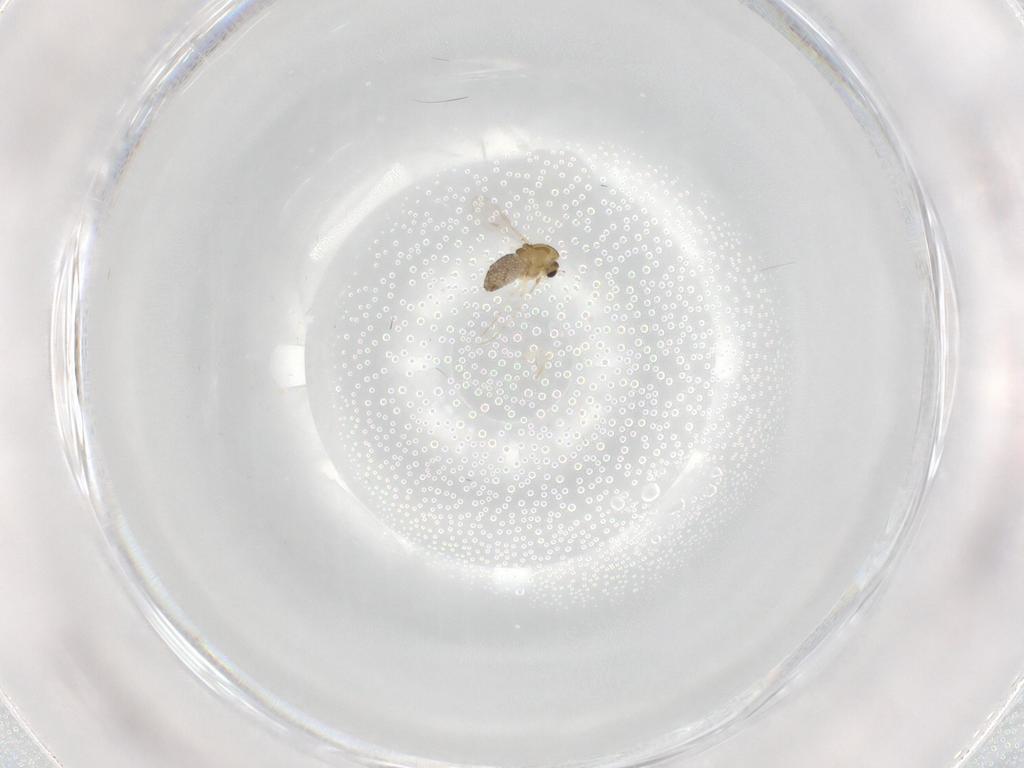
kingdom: Animalia
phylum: Arthropoda
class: Insecta
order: Diptera
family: Chironomidae
